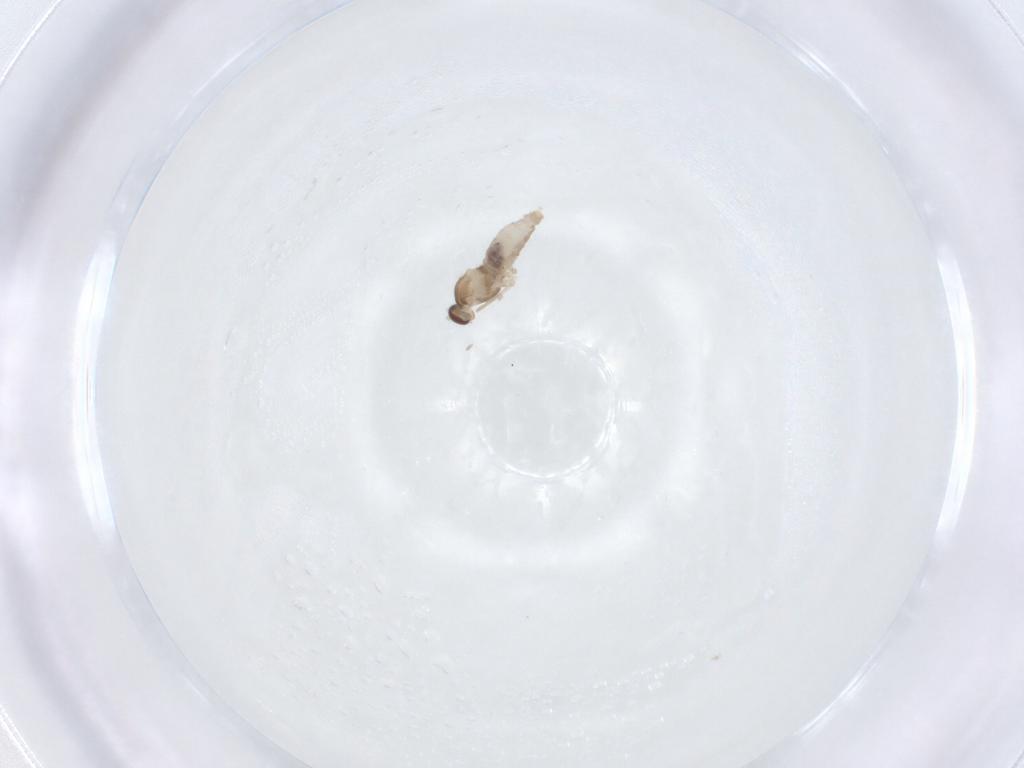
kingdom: Animalia
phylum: Arthropoda
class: Insecta
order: Diptera
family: Cecidomyiidae
